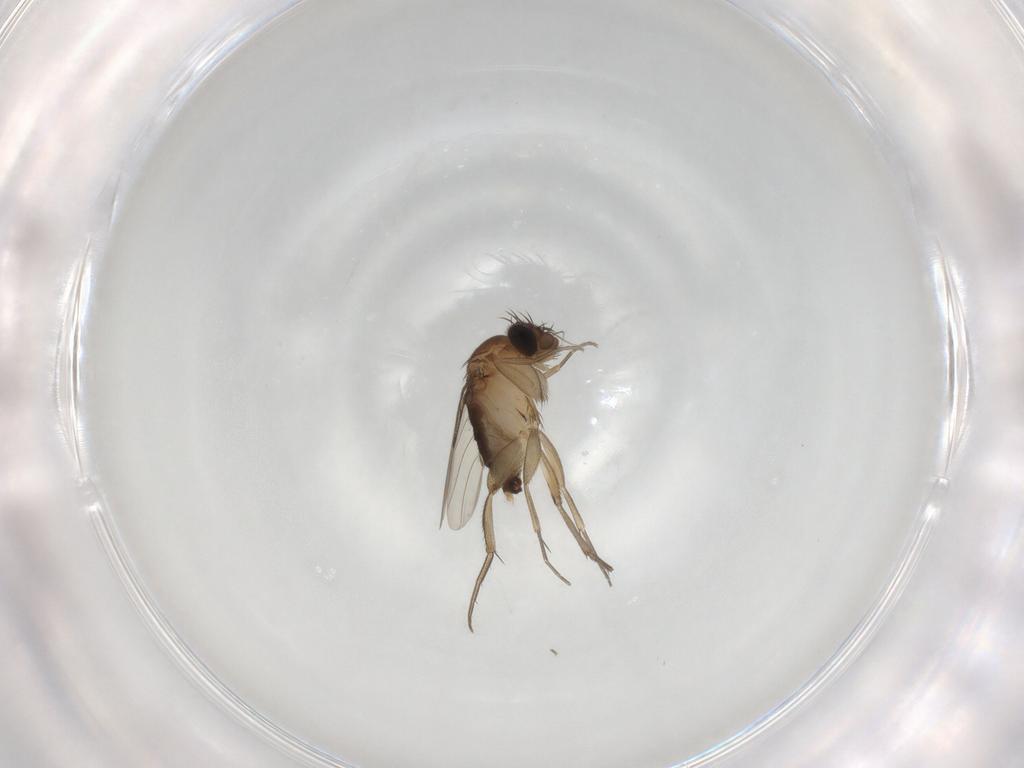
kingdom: Animalia
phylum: Arthropoda
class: Insecta
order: Diptera
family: Phoridae
